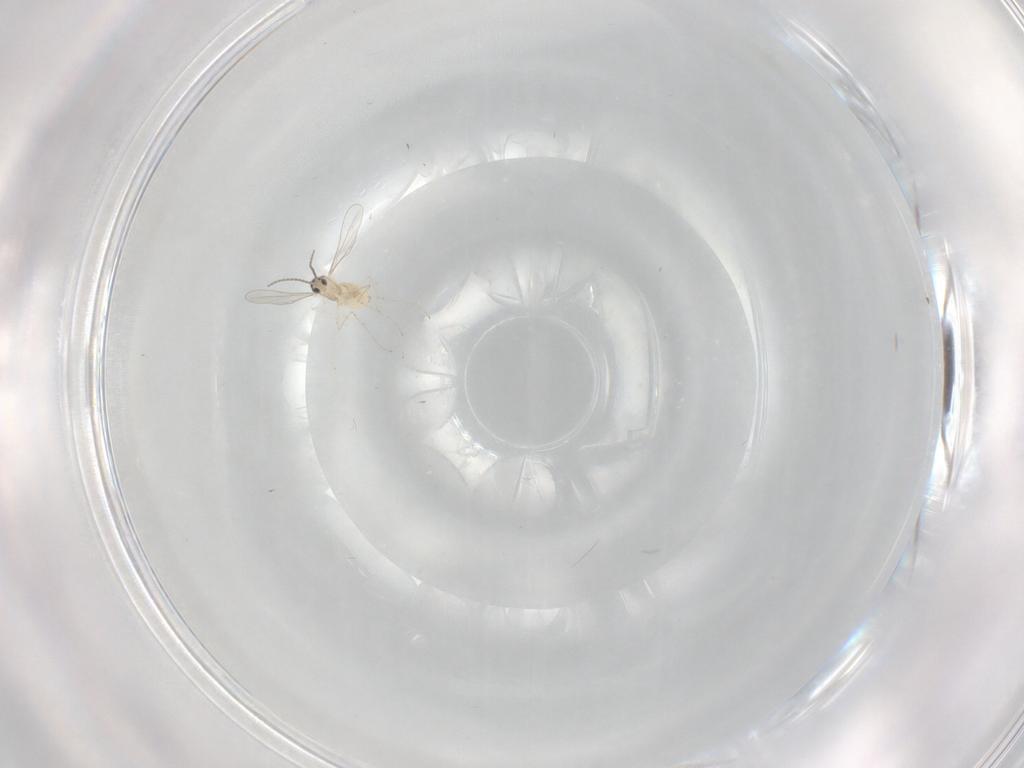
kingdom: Animalia
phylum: Arthropoda
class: Insecta
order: Diptera
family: Cecidomyiidae
